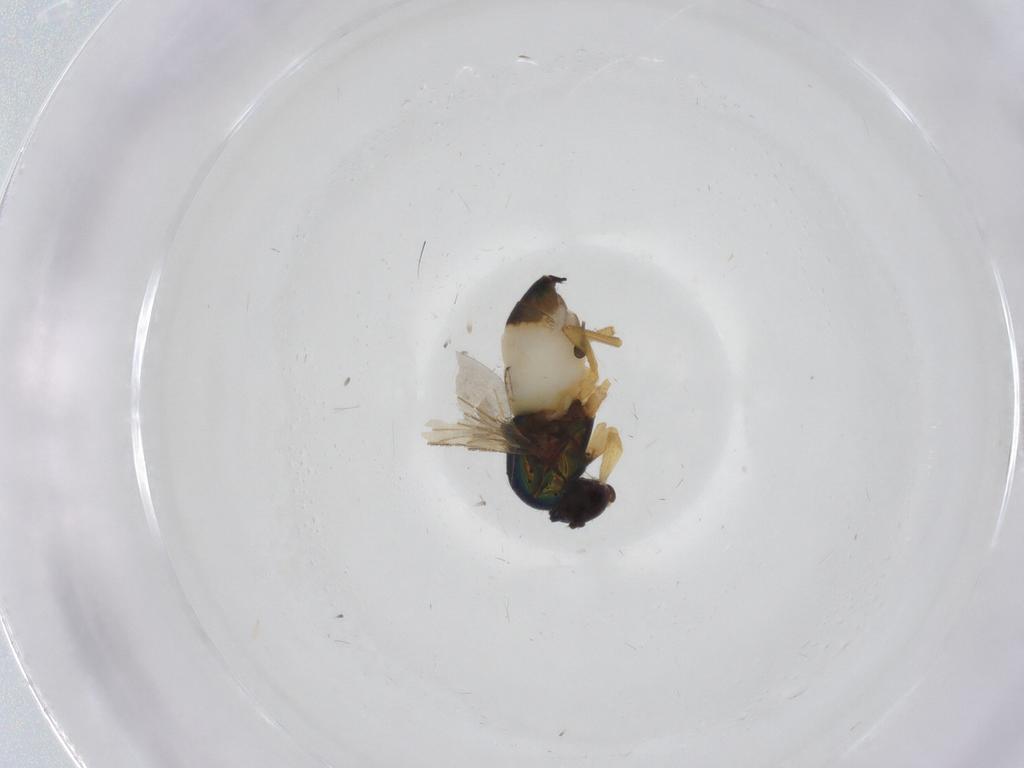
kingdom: Animalia
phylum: Arthropoda
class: Insecta
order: Diptera
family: Dolichopodidae
